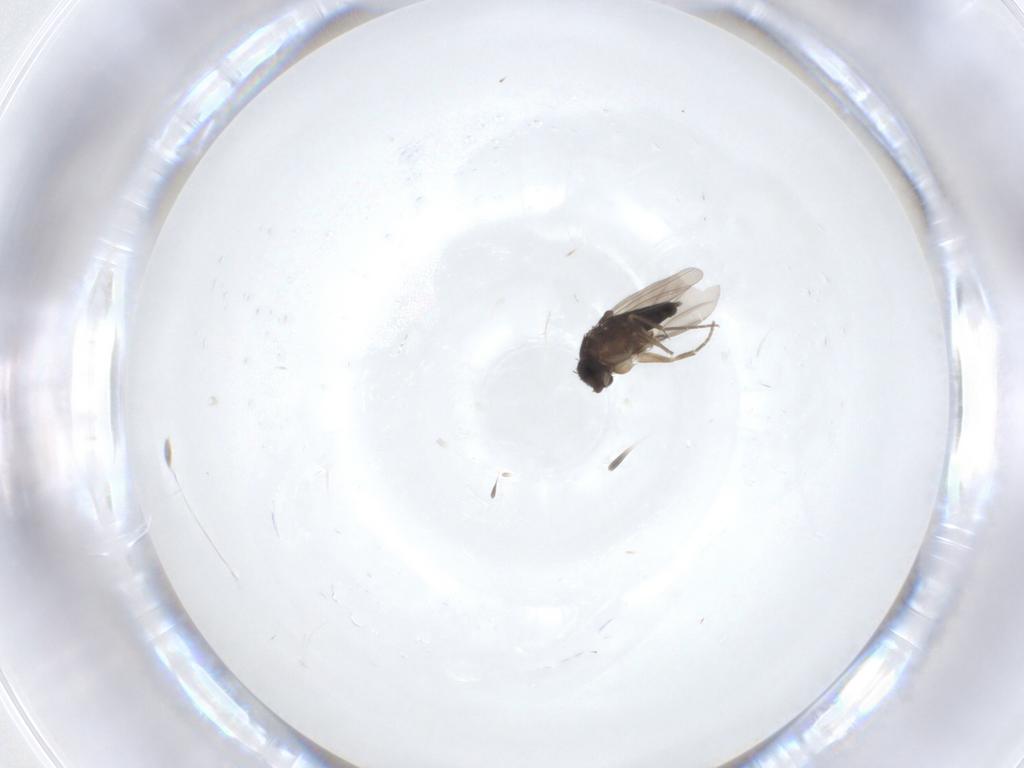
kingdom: Animalia
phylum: Arthropoda
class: Insecta
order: Diptera
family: Phoridae
